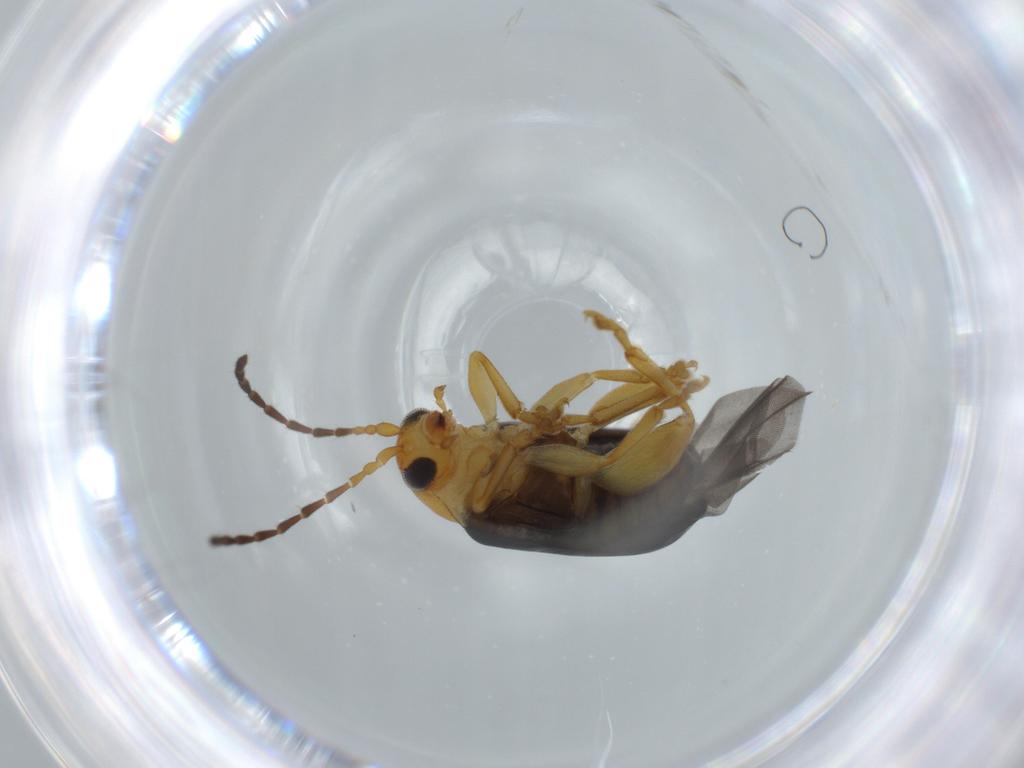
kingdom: Animalia
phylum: Arthropoda
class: Insecta
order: Coleoptera
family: Chrysomelidae
